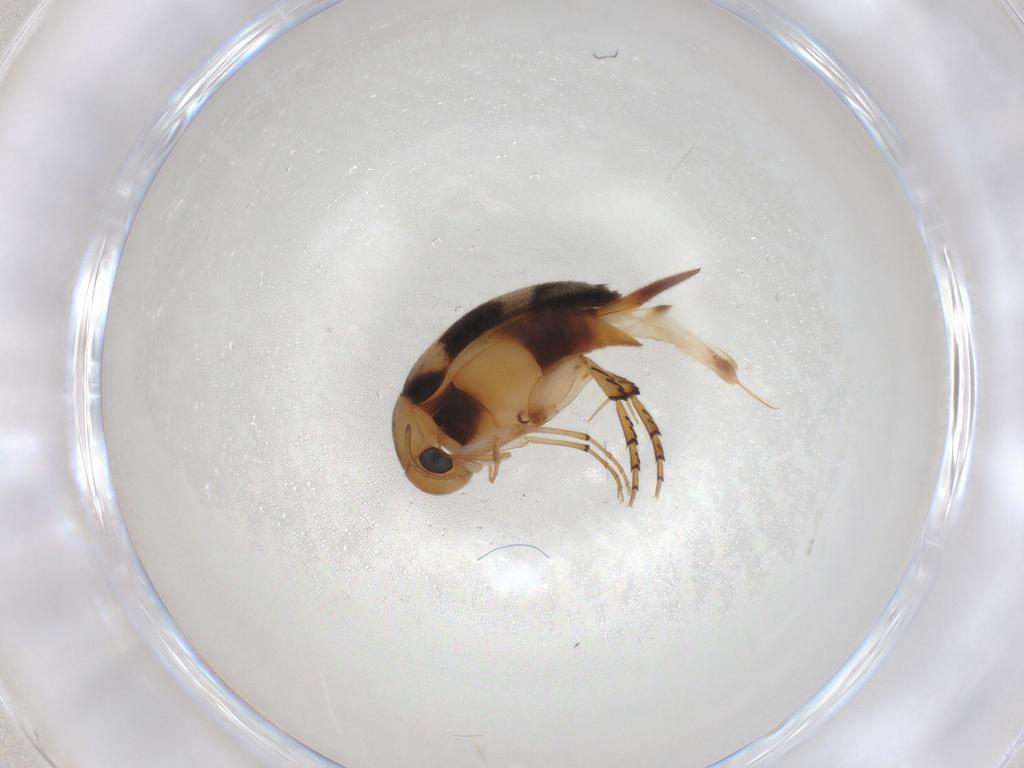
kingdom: Animalia
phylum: Arthropoda
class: Insecta
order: Coleoptera
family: Mordellidae
